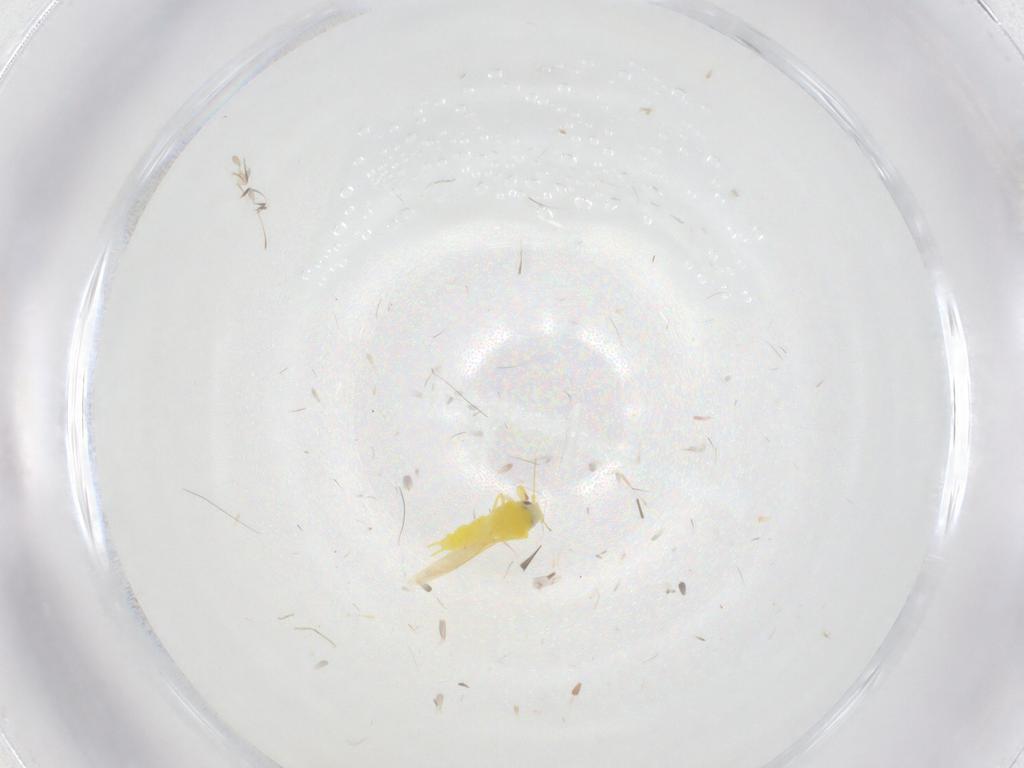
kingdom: Animalia
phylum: Arthropoda
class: Insecta
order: Hemiptera
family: Aleyrodidae
